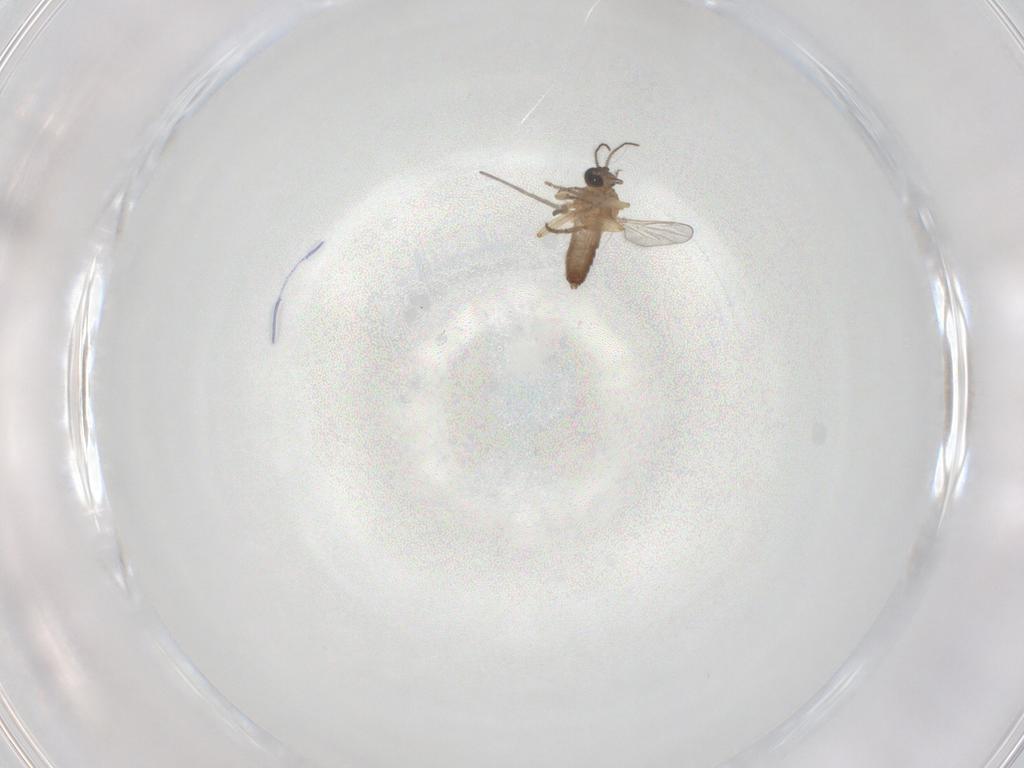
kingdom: Animalia
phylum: Arthropoda
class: Insecta
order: Diptera
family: Ceratopogonidae
